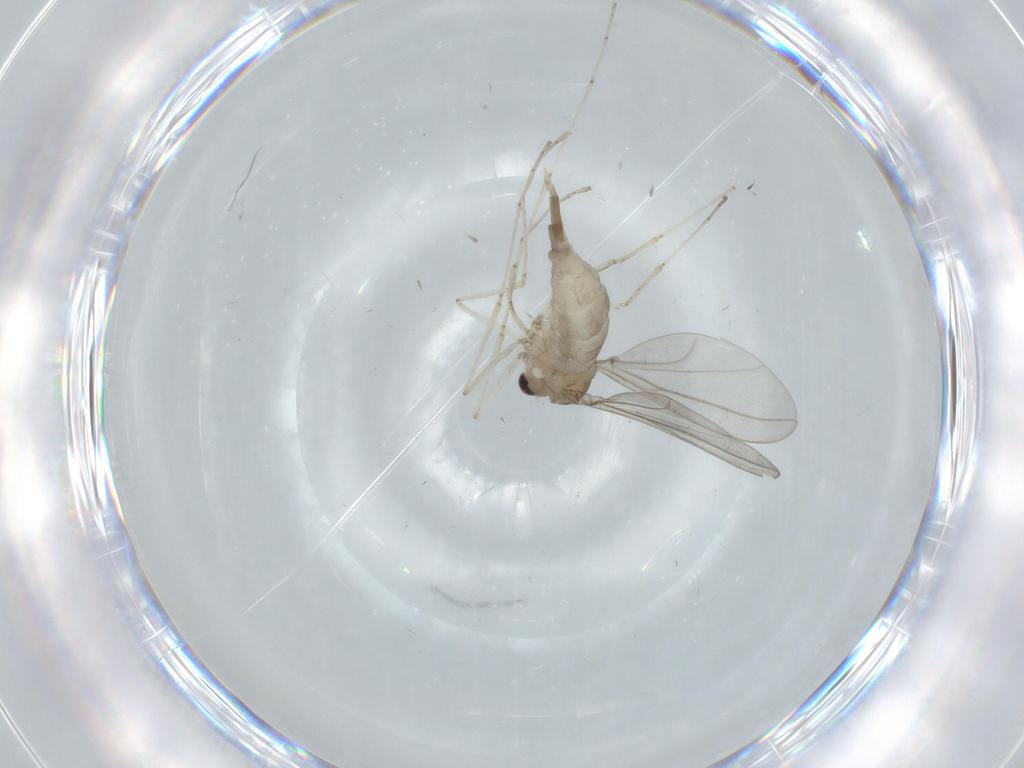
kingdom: Animalia
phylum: Arthropoda
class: Insecta
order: Diptera
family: Cecidomyiidae
